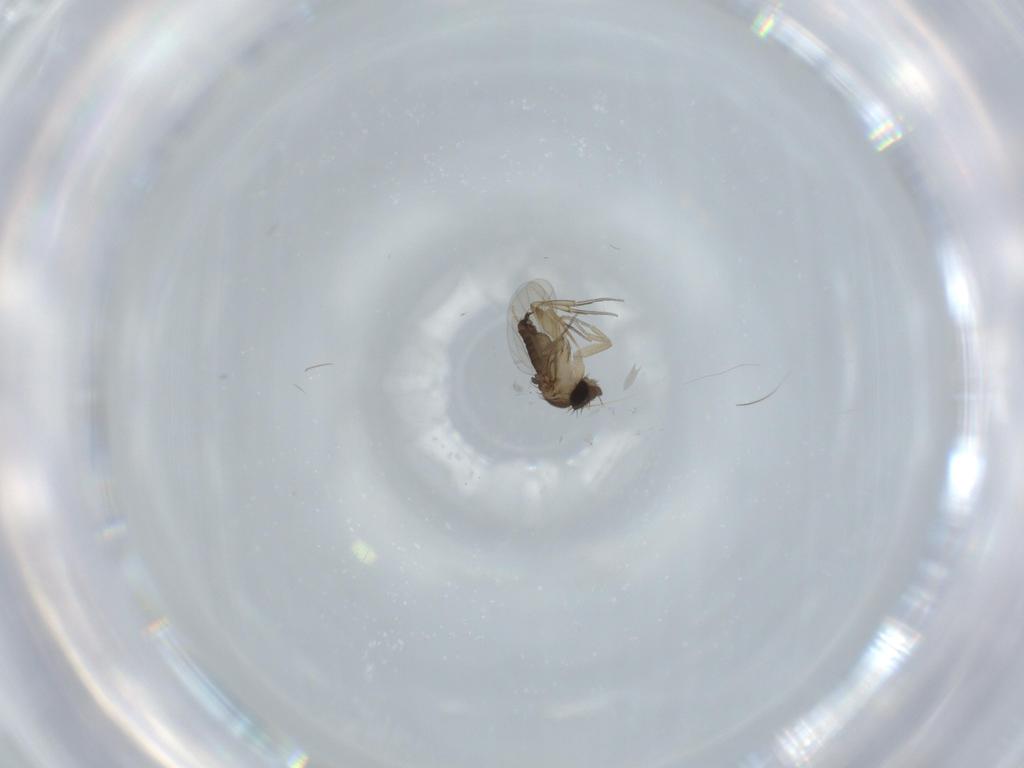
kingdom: Animalia
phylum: Arthropoda
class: Insecta
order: Diptera
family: Phoridae
